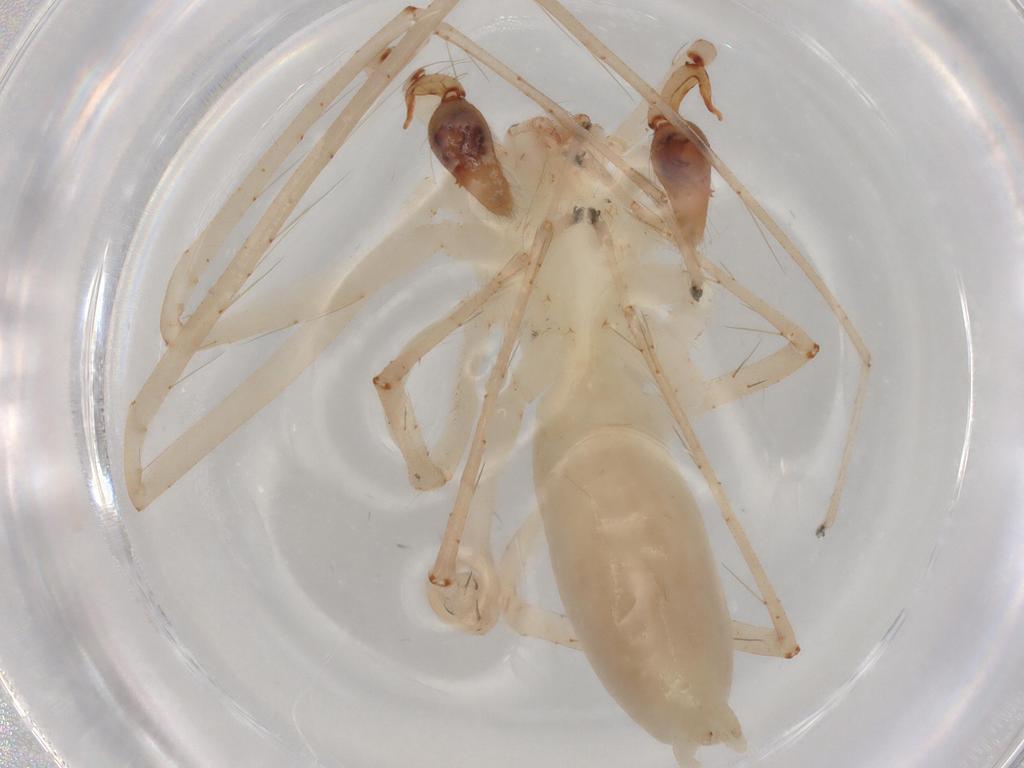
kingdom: Animalia
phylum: Arthropoda
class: Arachnida
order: Araneae
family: Anyphaenidae
